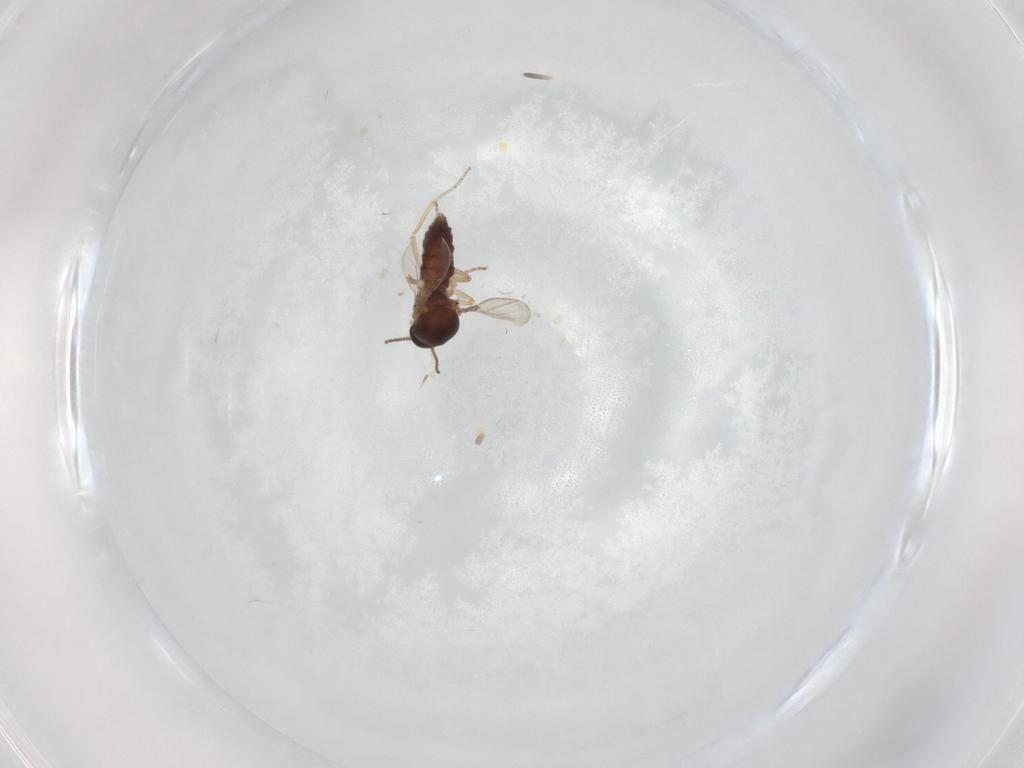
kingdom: Animalia
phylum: Arthropoda
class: Insecta
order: Diptera
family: Ceratopogonidae
